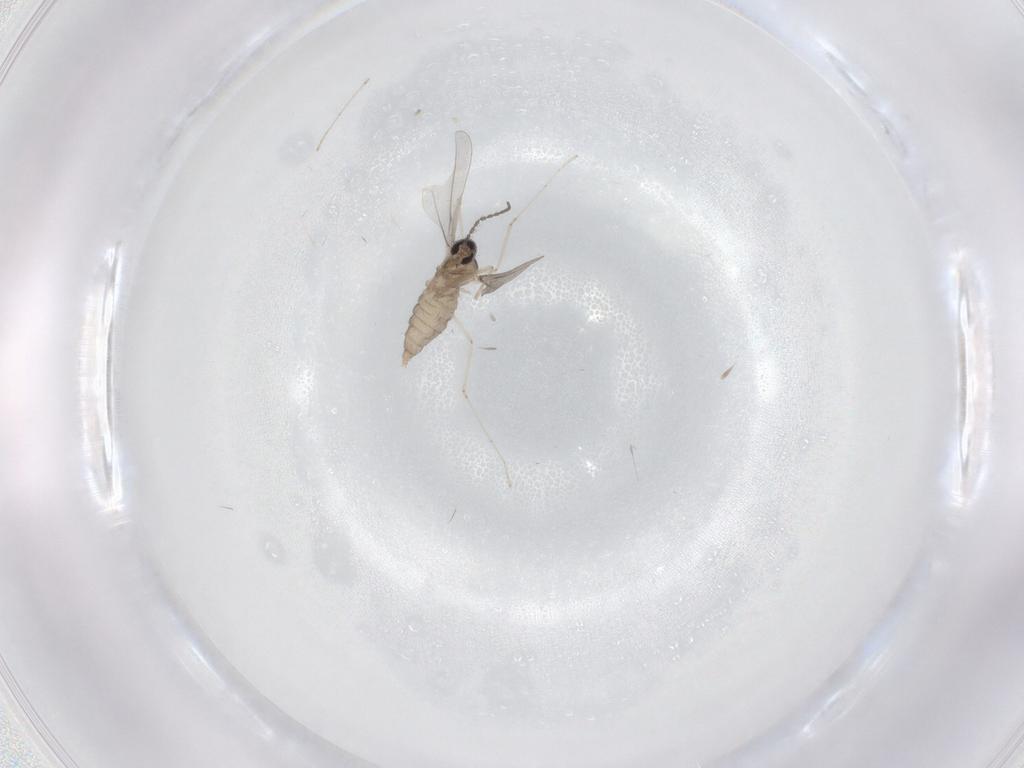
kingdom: Animalia
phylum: Arthropoda
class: Insecta
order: Diptera
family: Cecidomyiidae
